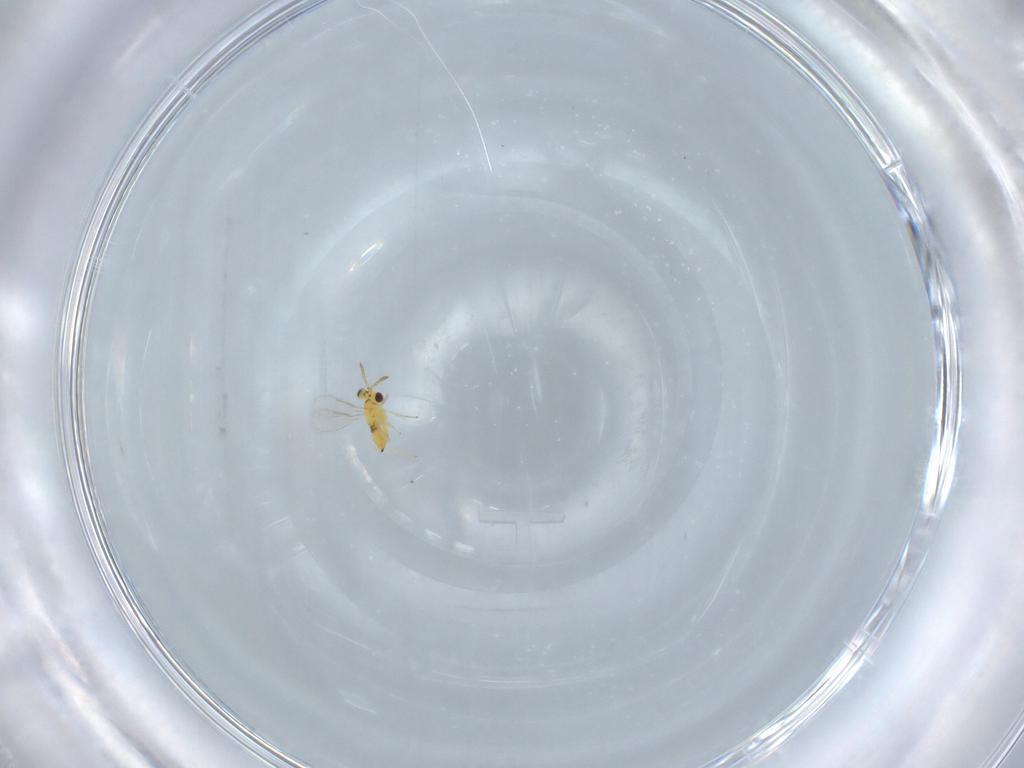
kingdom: Animalia
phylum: Arthropoda
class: Insecta
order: Hymenoptera
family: Aphelinidae
